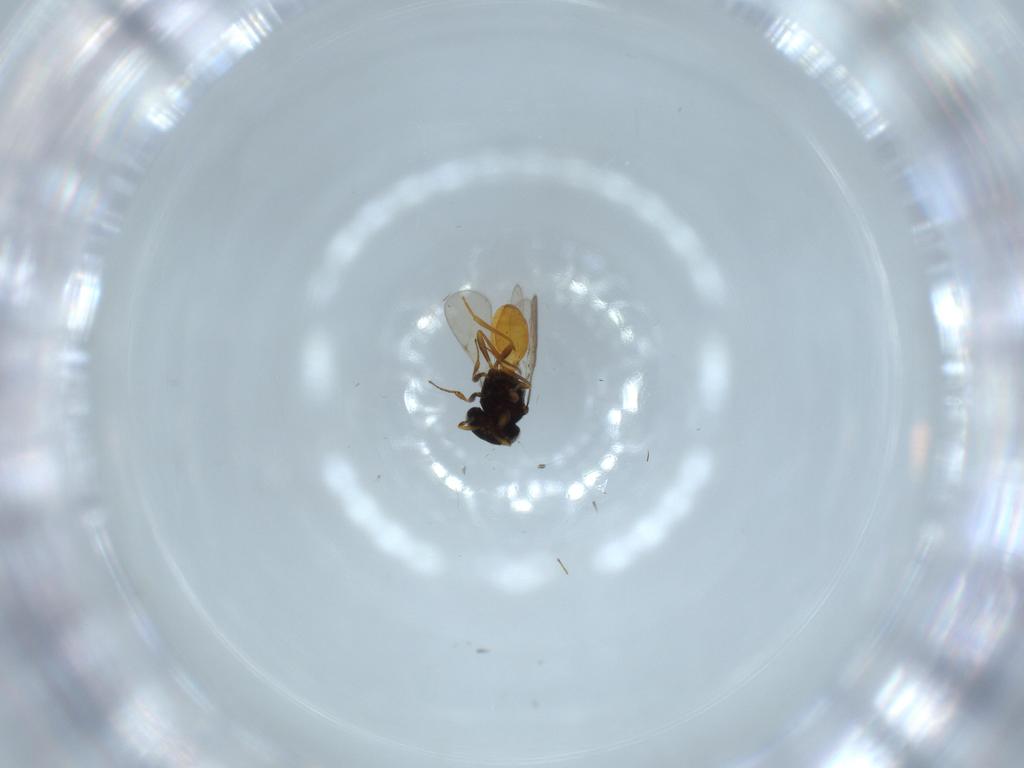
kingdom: Animalia
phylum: Arthropoda
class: Insecta
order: Hymenoptera
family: Scelionidae
